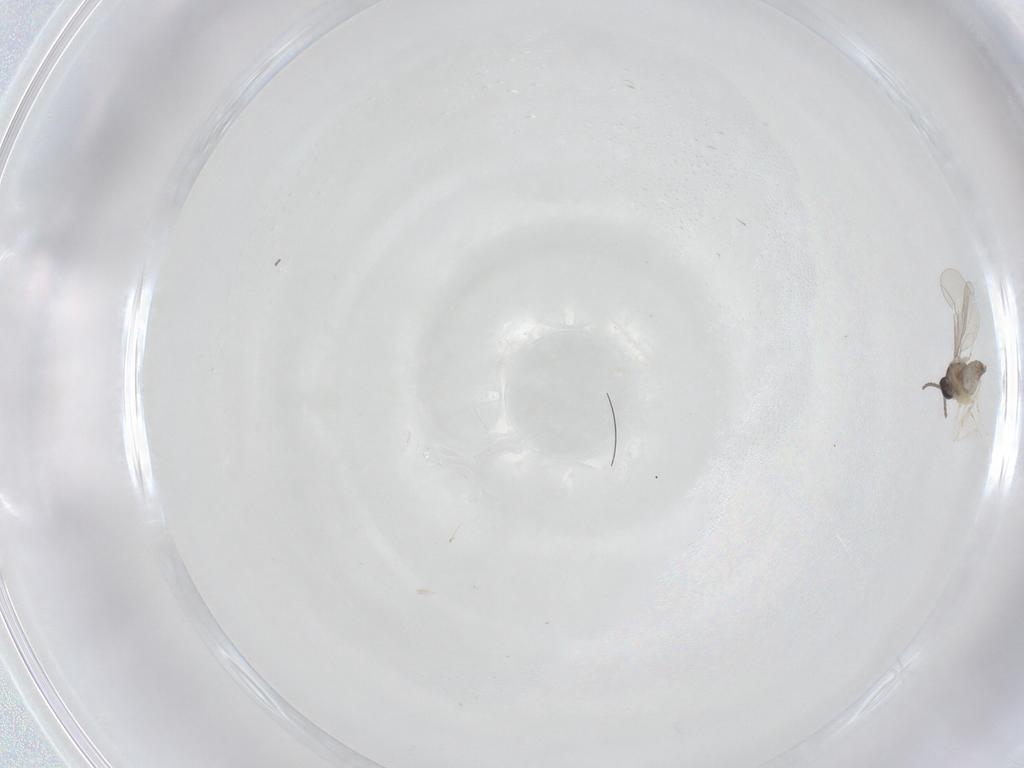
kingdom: Animalia
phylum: Arthropoda
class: Insecta
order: Diptera
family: Cecidomyiidae
